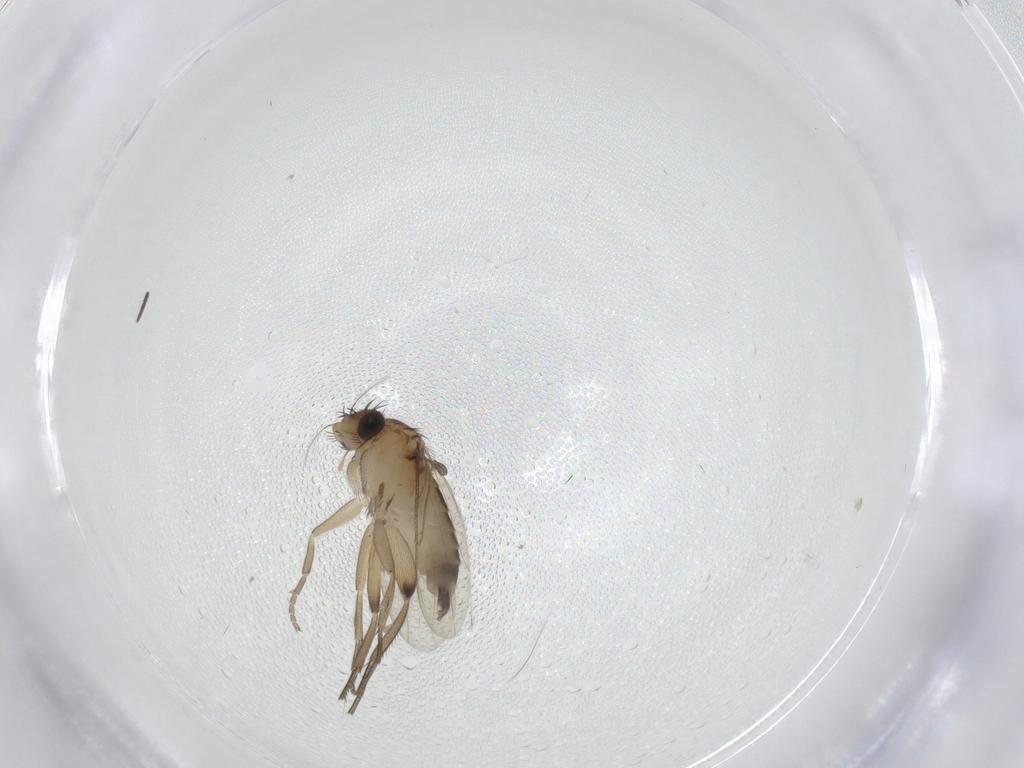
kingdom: Animalia
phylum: Arthropoda
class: Insecta
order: Diptera
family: Phoridae
